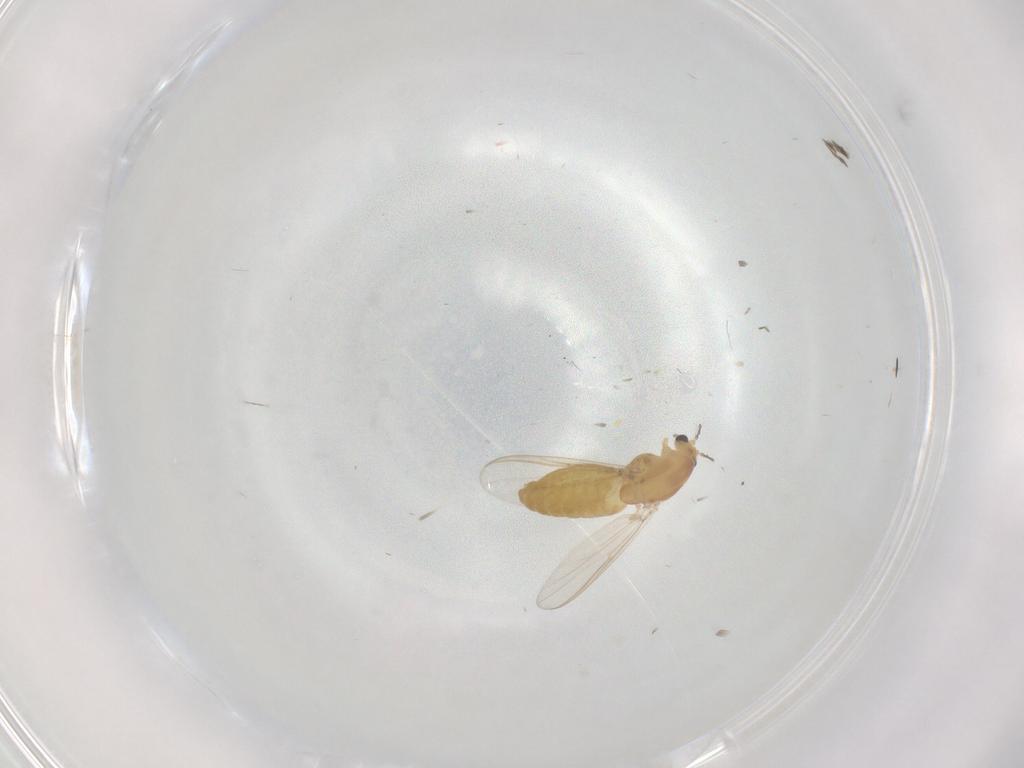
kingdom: Animalia
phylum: Arthropoda
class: Insecta
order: Diptera
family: Chironomidae
